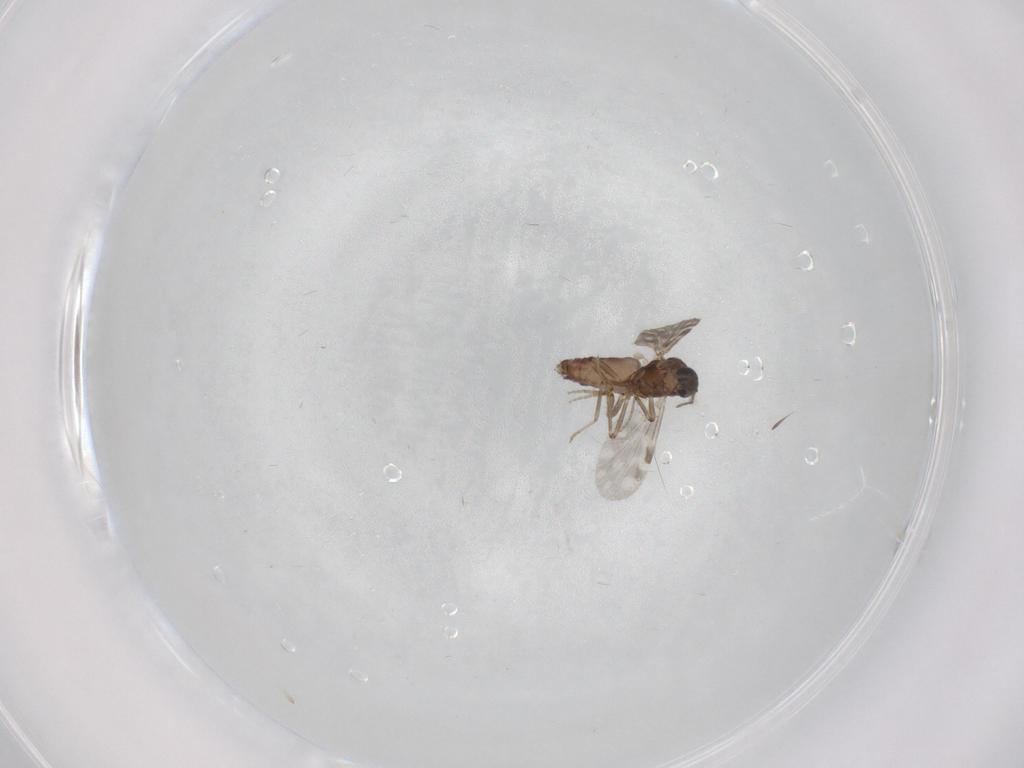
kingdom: Animalia
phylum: Arthropoda
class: Insecta
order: Diptera
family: Ceratopogonidae
